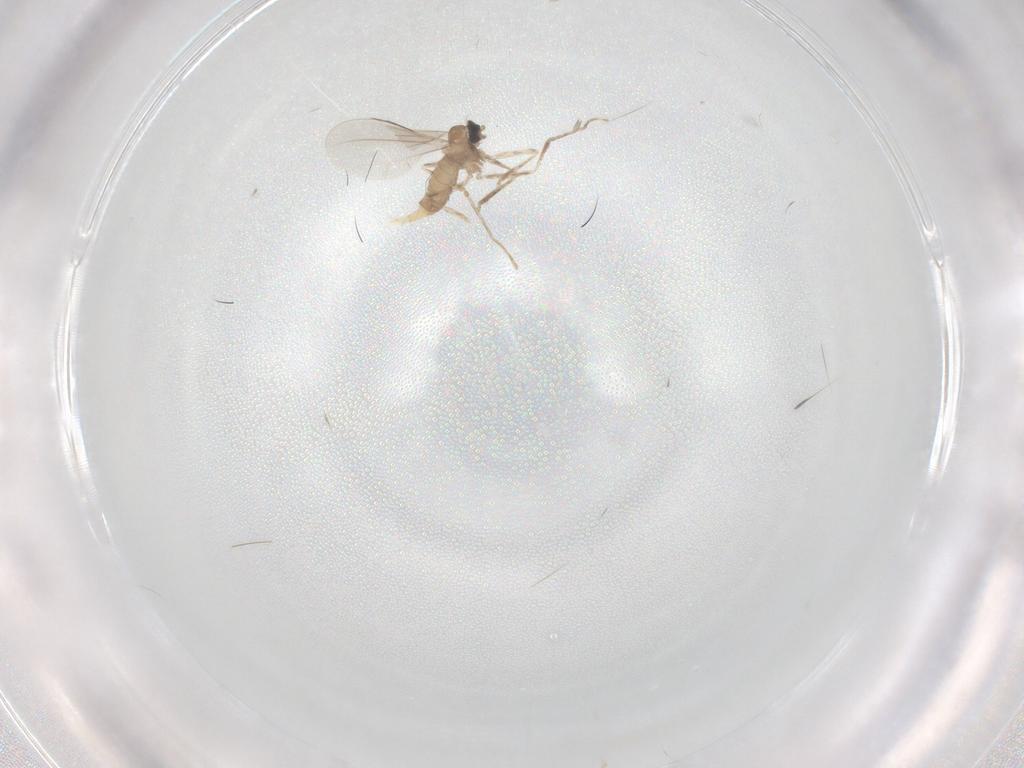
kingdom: Animalia
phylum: Arthropoda
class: Insecta
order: Diptera
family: Cecidomyiidae
